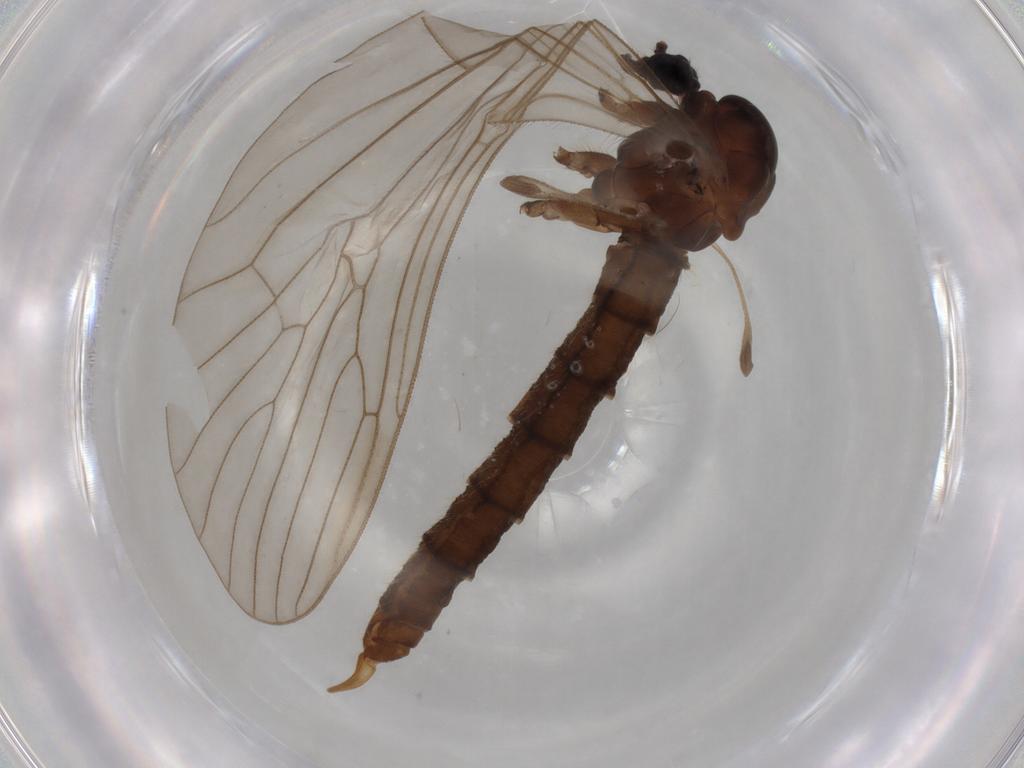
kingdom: Animalia
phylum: Arthropoda
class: Insecta
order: Diptera
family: Trichoceridae
